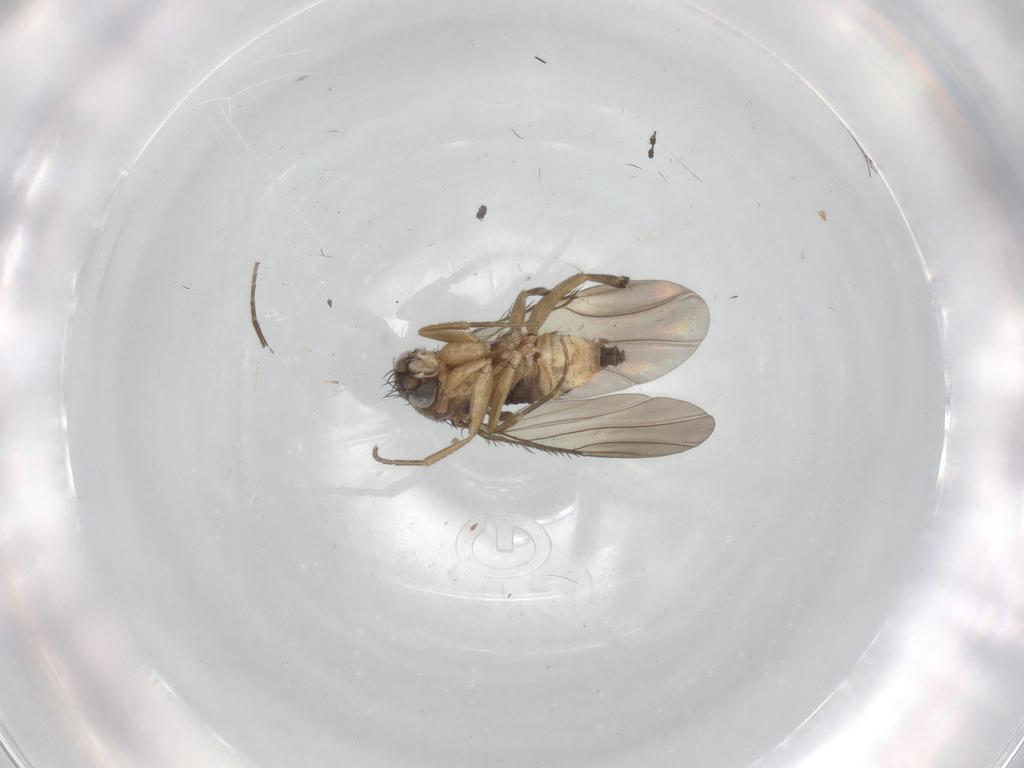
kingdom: Animalia
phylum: Arthropoda
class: Insecta
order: Diptera
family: Phoridae
